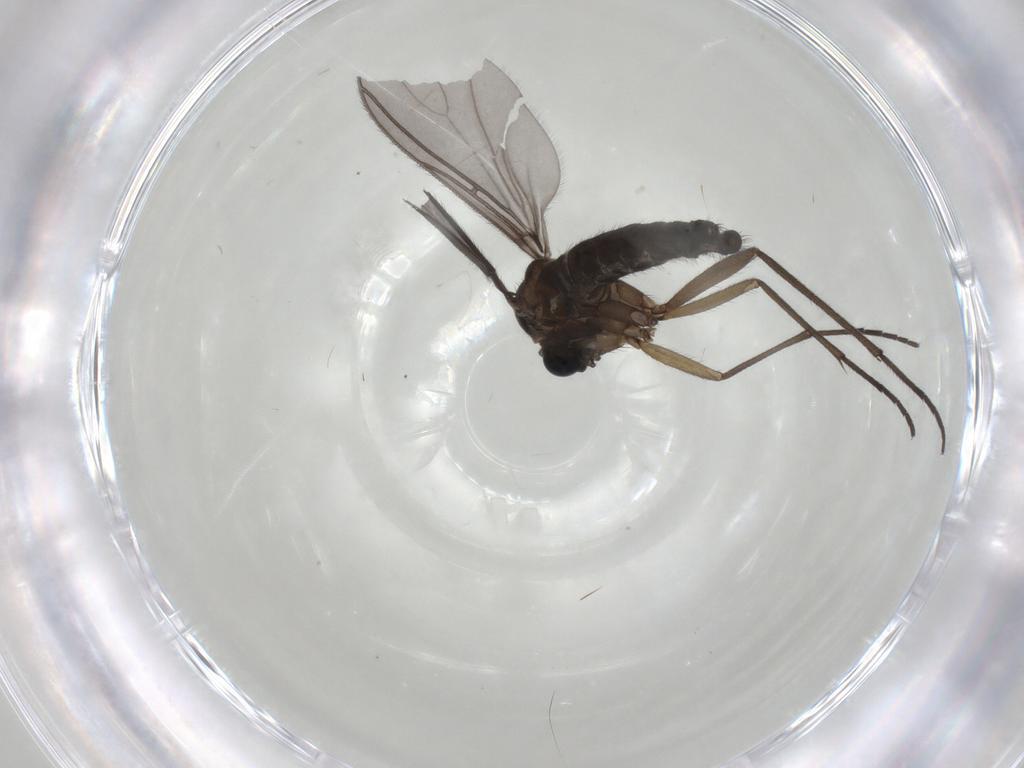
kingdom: Animalia
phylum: Arthropoda
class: Insecta
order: Diptera
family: Sciaridae
